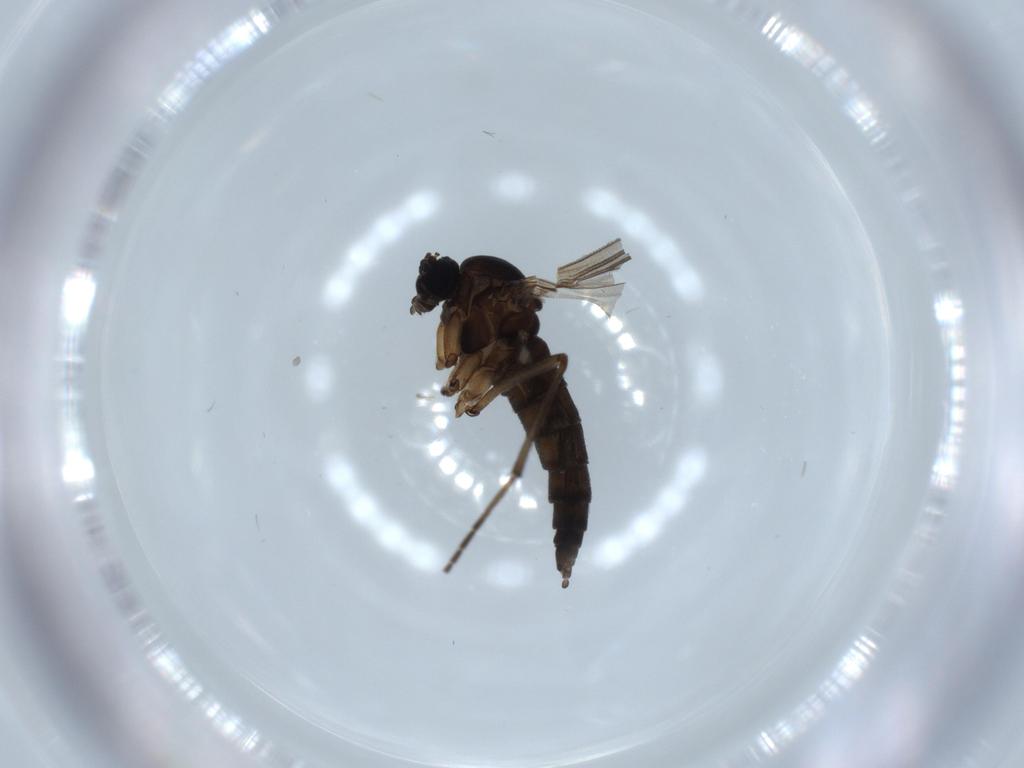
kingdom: Animalia
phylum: Arthropoda
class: Insecta
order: Diptera
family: Sciaridae
